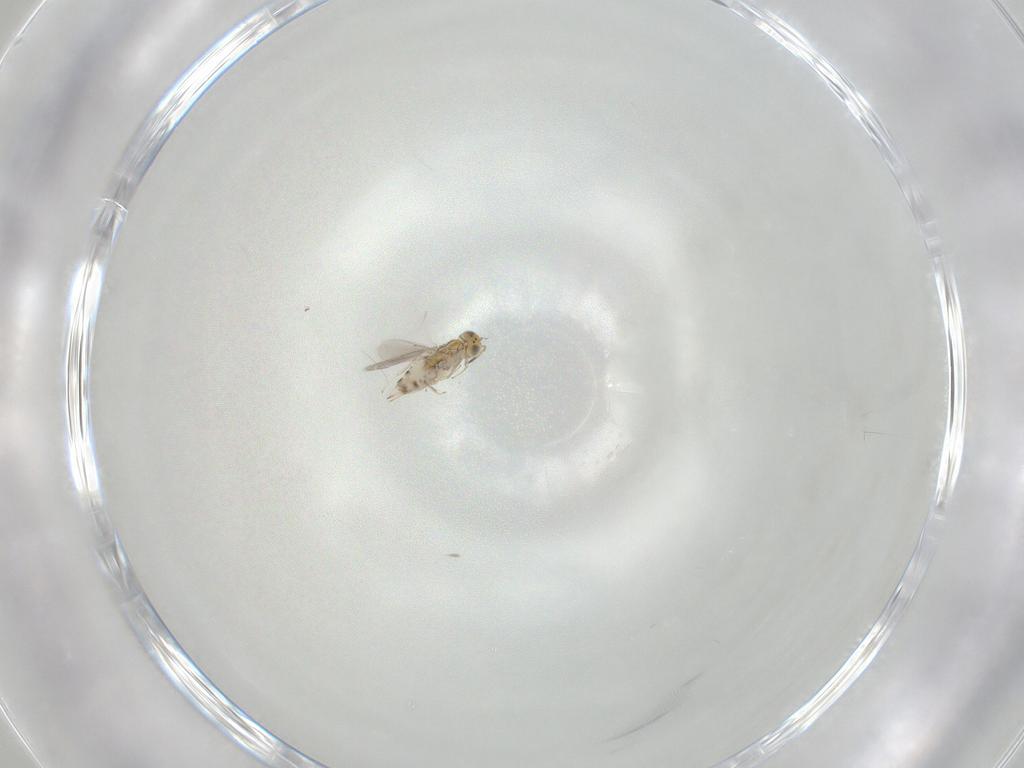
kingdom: Animalia
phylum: Arthropoda
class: Insecta
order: Hymenoptera
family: Aphelinidae
